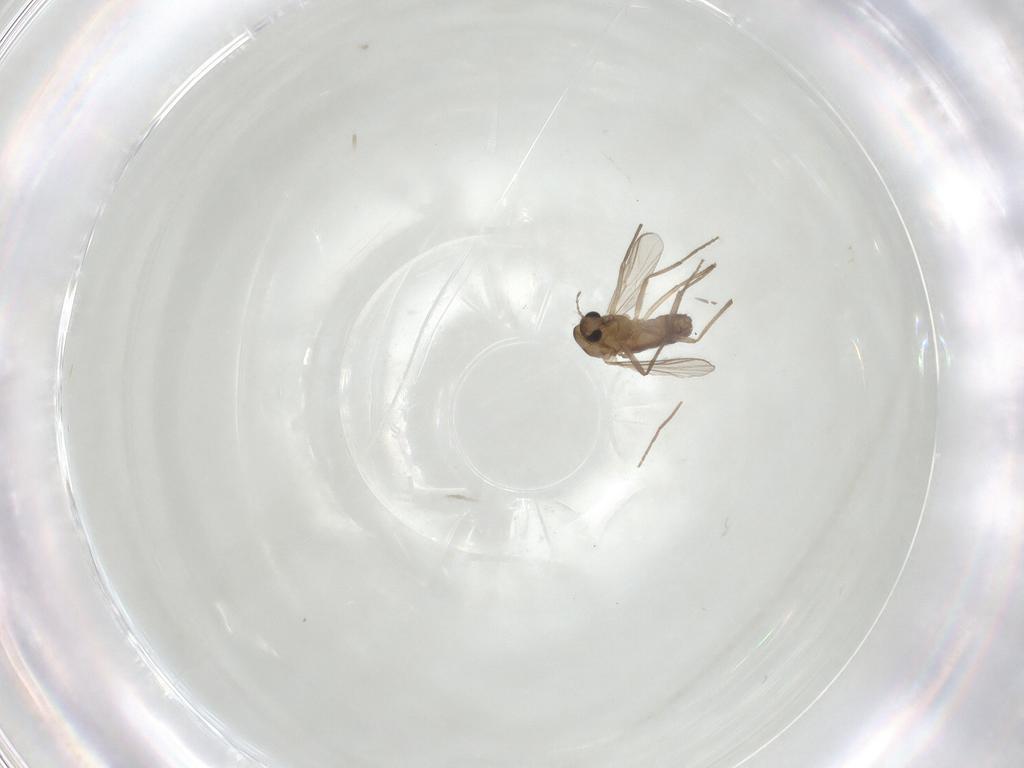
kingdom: Animalia
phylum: Arthropoda
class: Insecta
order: Diptera
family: Chironomidae
